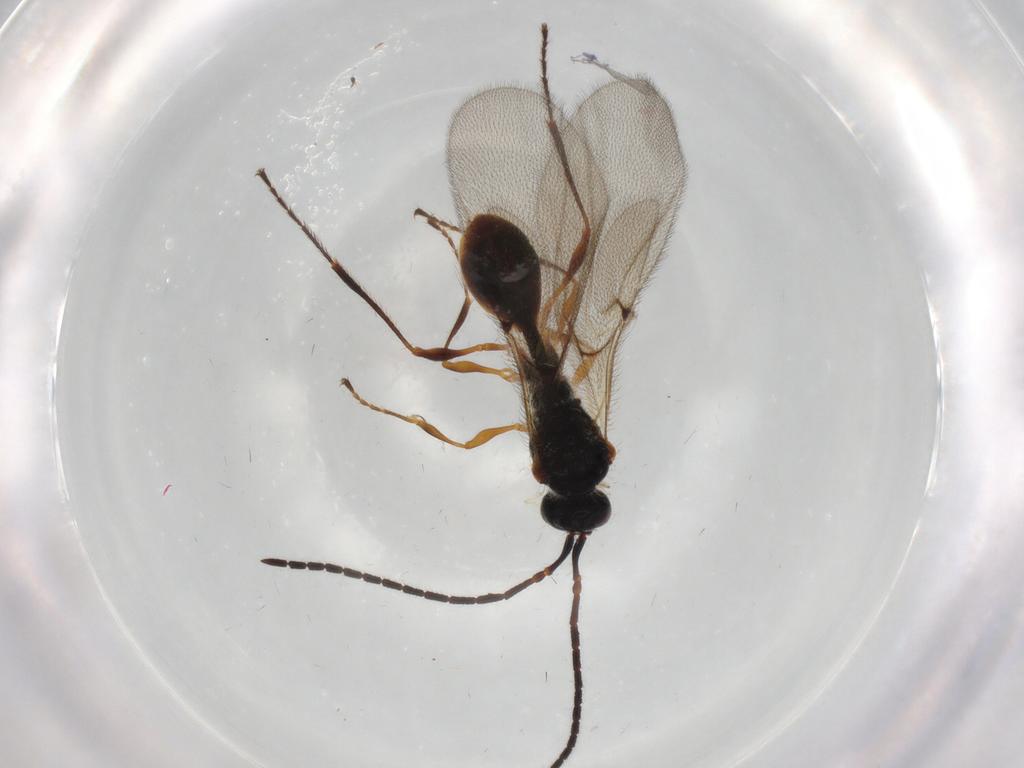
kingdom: Animalia
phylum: Arthropoda
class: Insecta
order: Hymenoptera
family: Diapriidae
